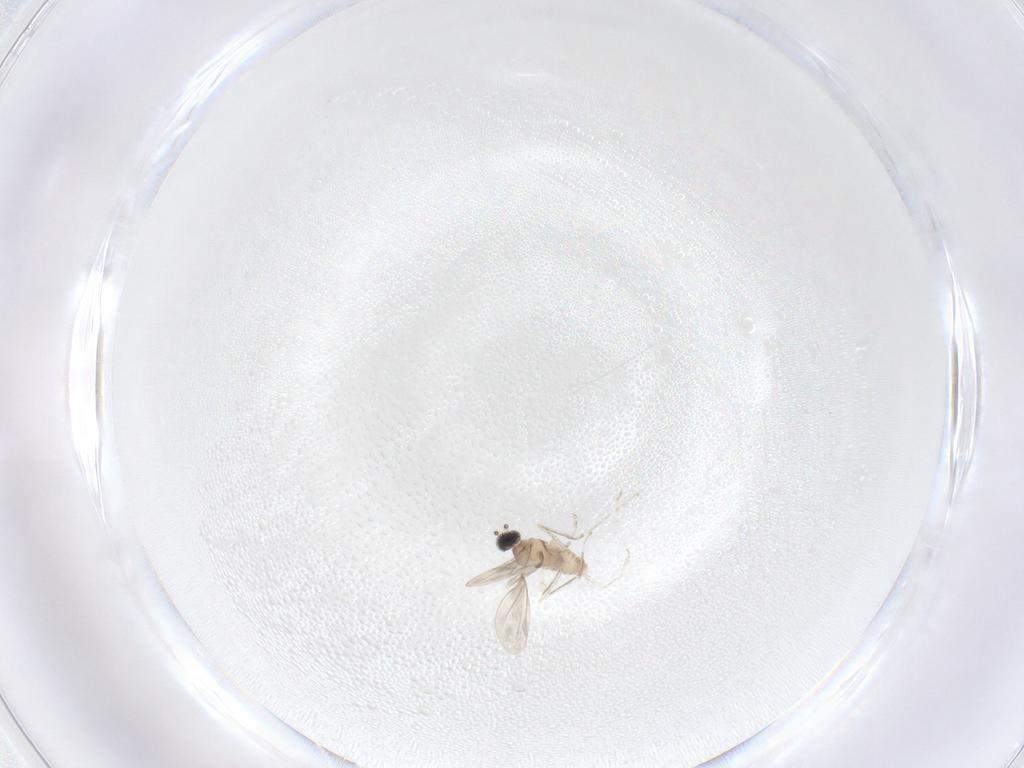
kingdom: Animalia
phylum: Arthropoda
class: Insecta
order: Diptera
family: Cecidomyiidae
